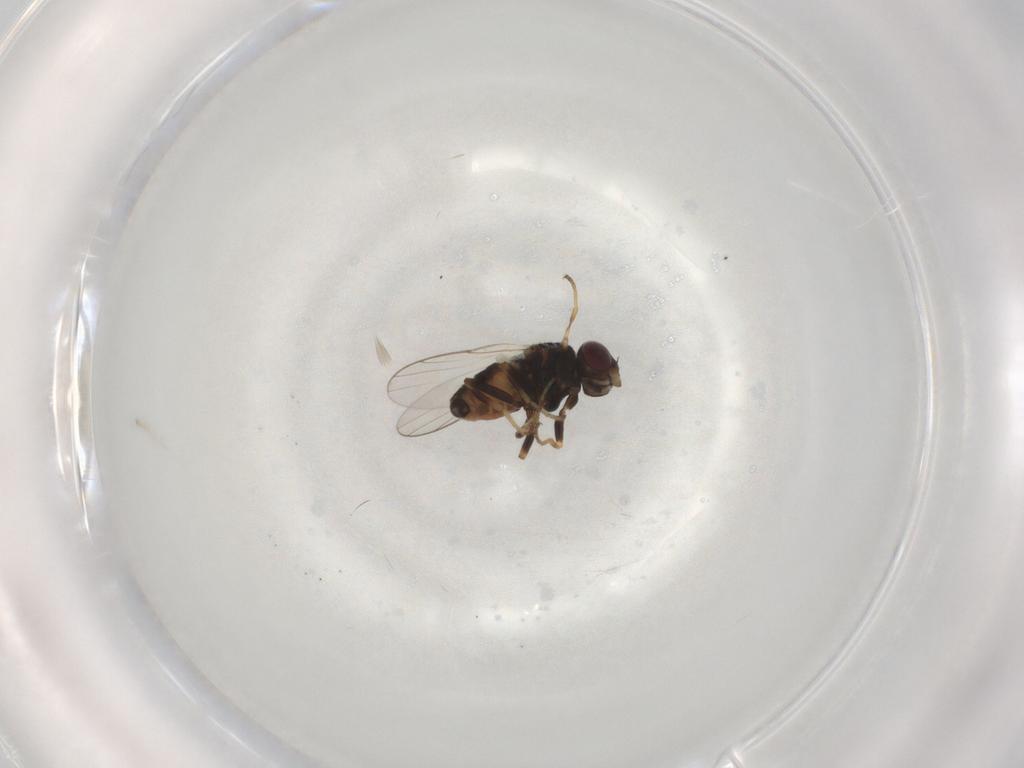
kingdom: Animalia
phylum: Arthropoda
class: Insecta
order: Diptera
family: Chloropidae
